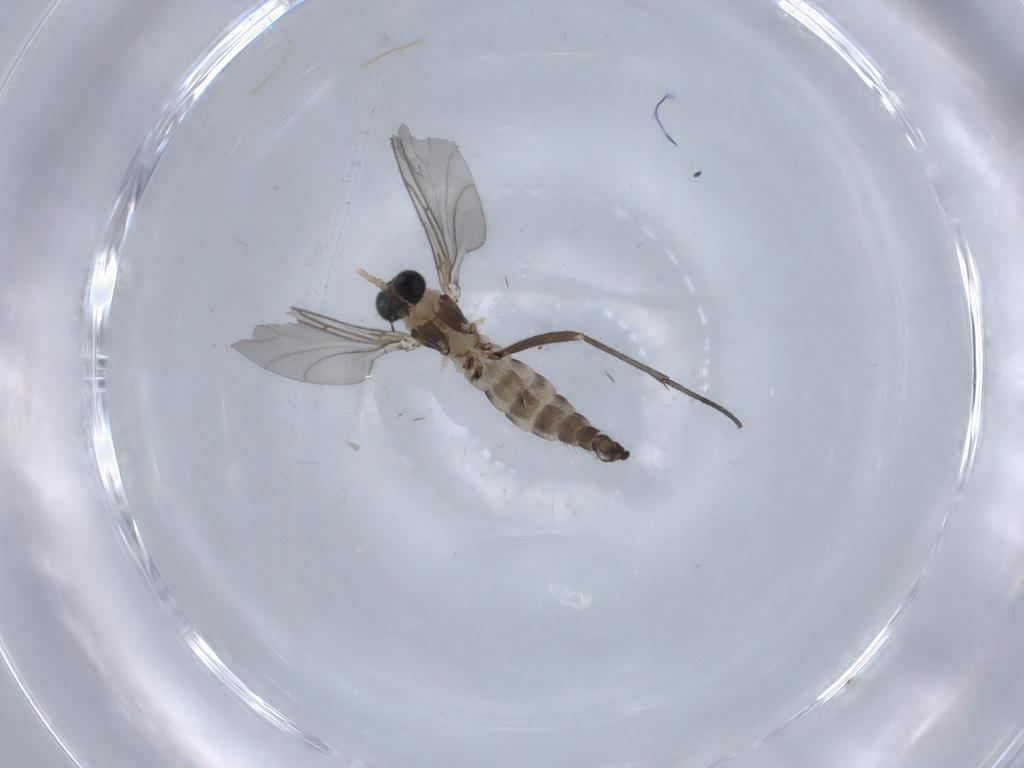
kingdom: Animalia
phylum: Arthropoda
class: Insecta
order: Diptera
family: Sciaridae
